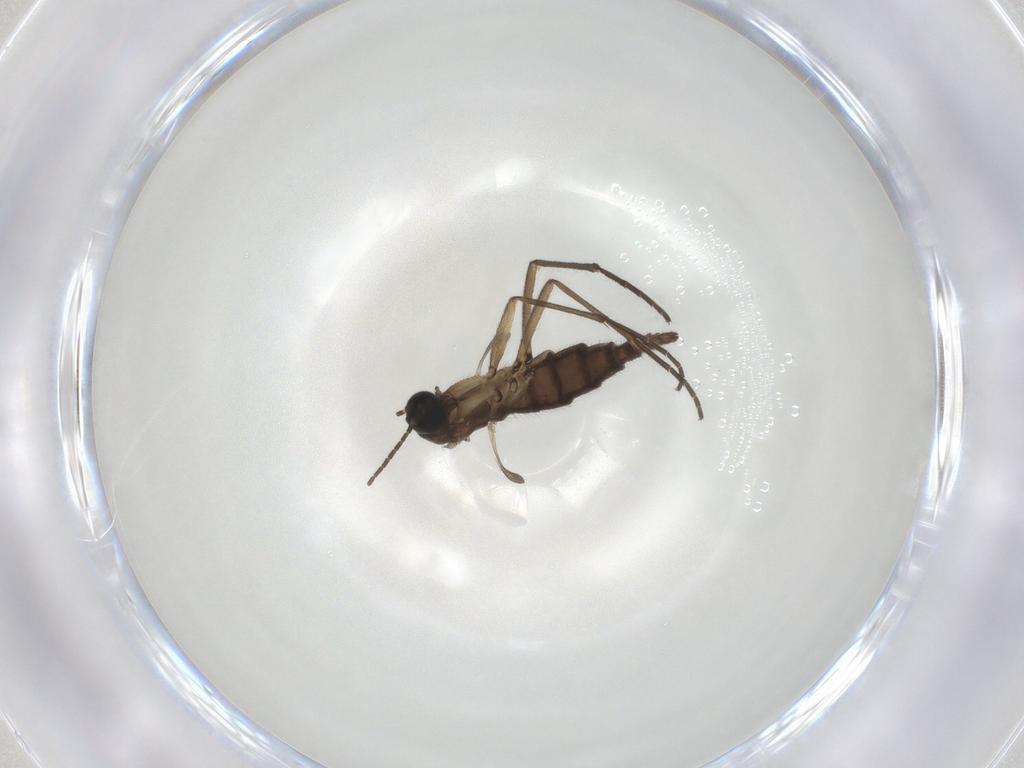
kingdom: Animalia
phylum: Arthropoda
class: Insecta
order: Diptera
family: Sciaridae
